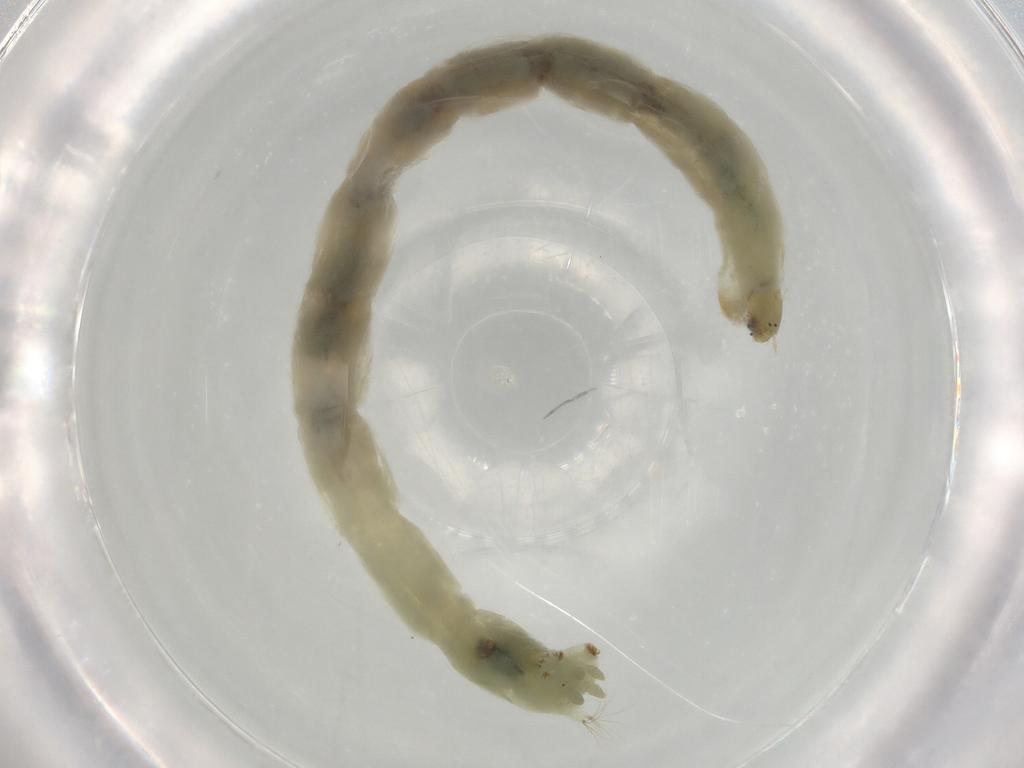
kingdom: Animalia
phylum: Arthropoda
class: Insecta
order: Diptera
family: Chironomidae
